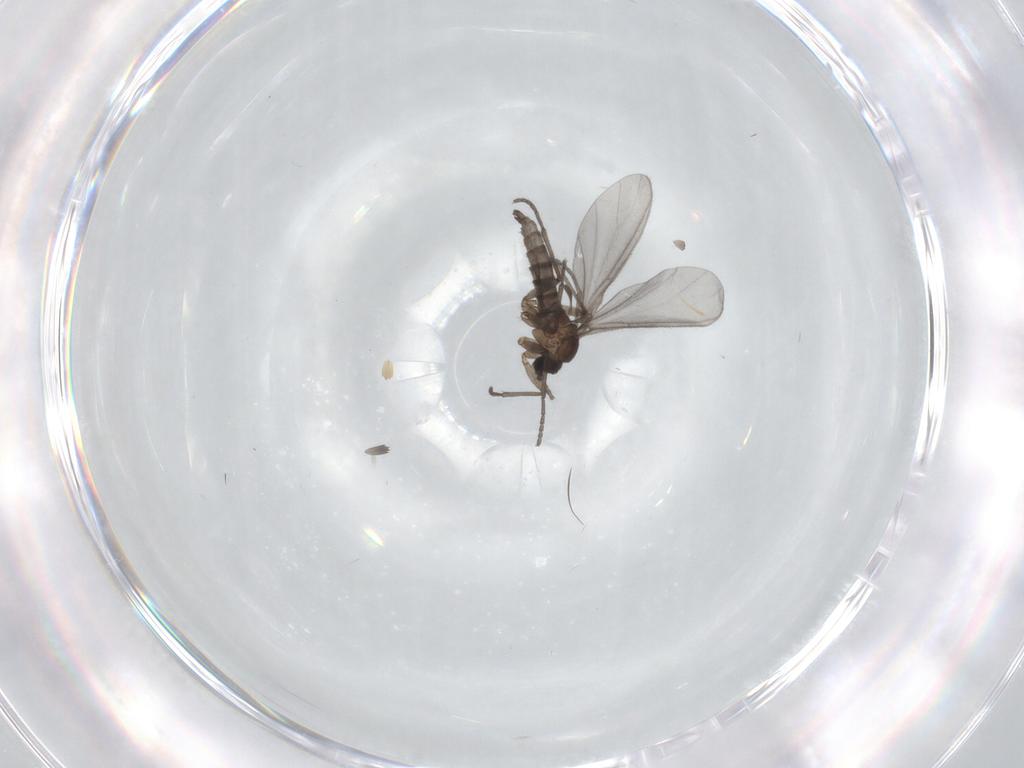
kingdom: Animalia
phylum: Arthropoda
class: Insecta
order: Diptera
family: Sciaridae
